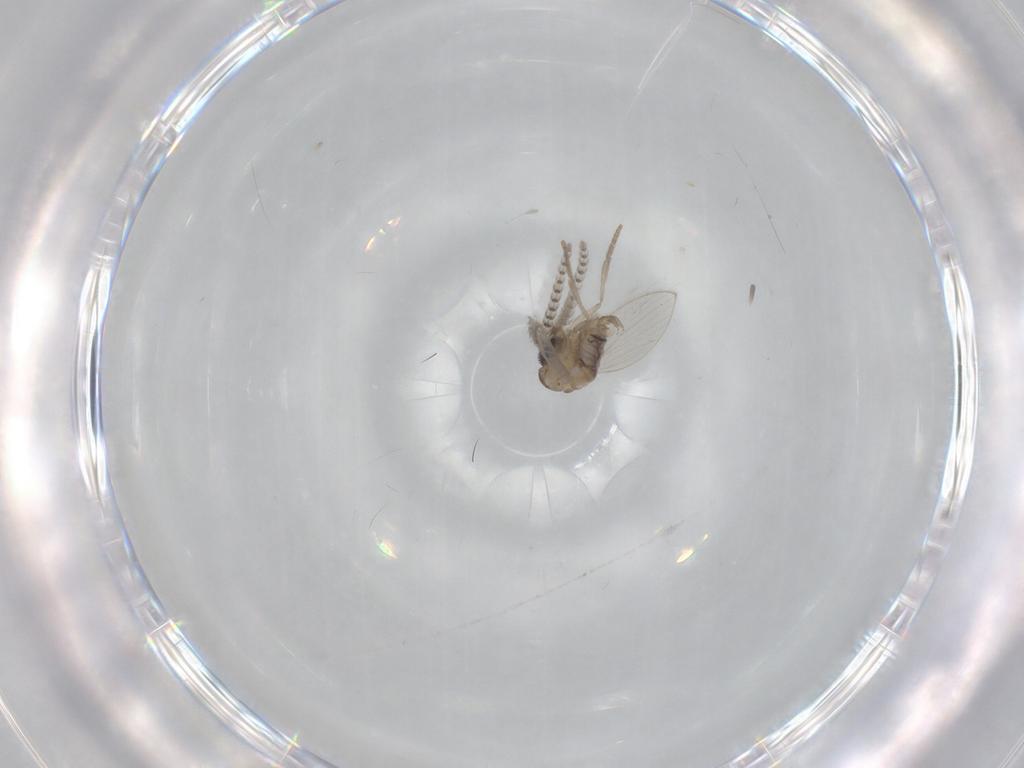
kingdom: Animalia
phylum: Arthropoda
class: Insecta
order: Diptera
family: Psychodidae
